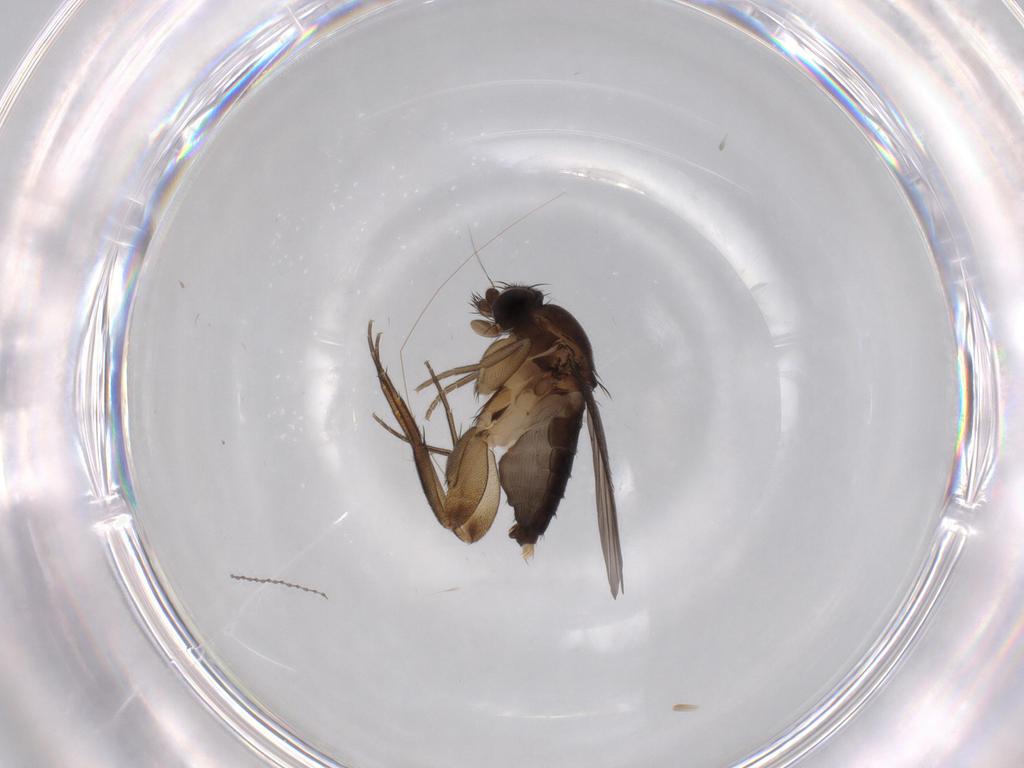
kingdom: Animalia
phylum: Arthropoda
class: Insecta
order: Diptera
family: Phoridae
